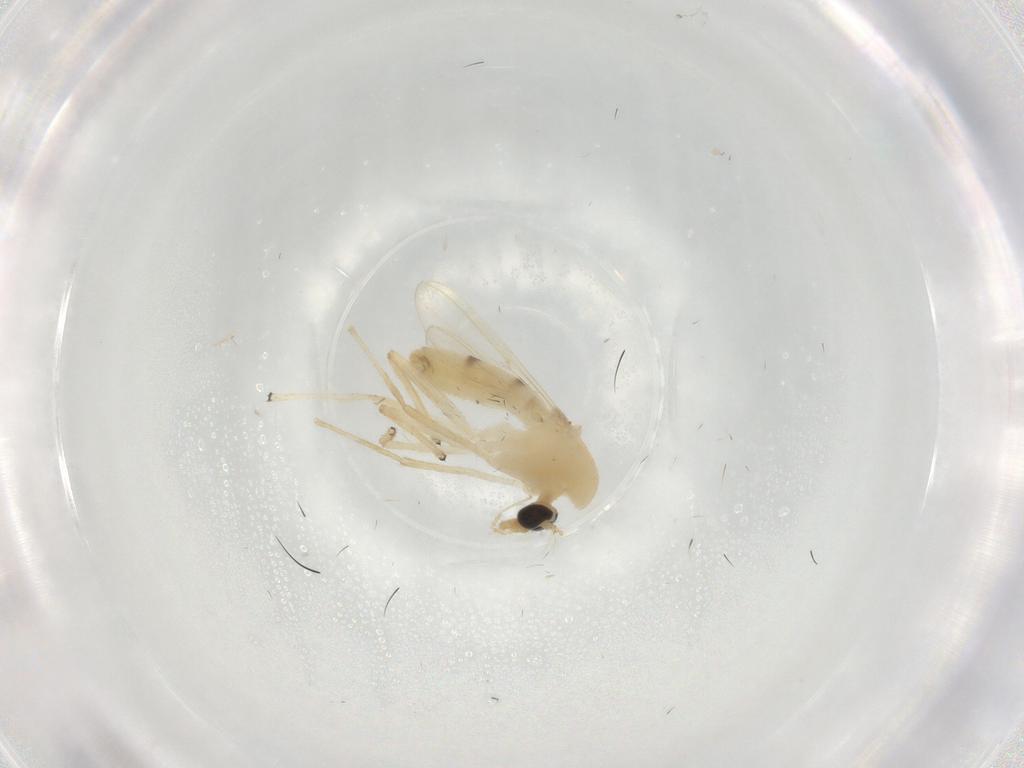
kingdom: Animalia
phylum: Arthropoda
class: Insecta
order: Diptera
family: Chironomidae
